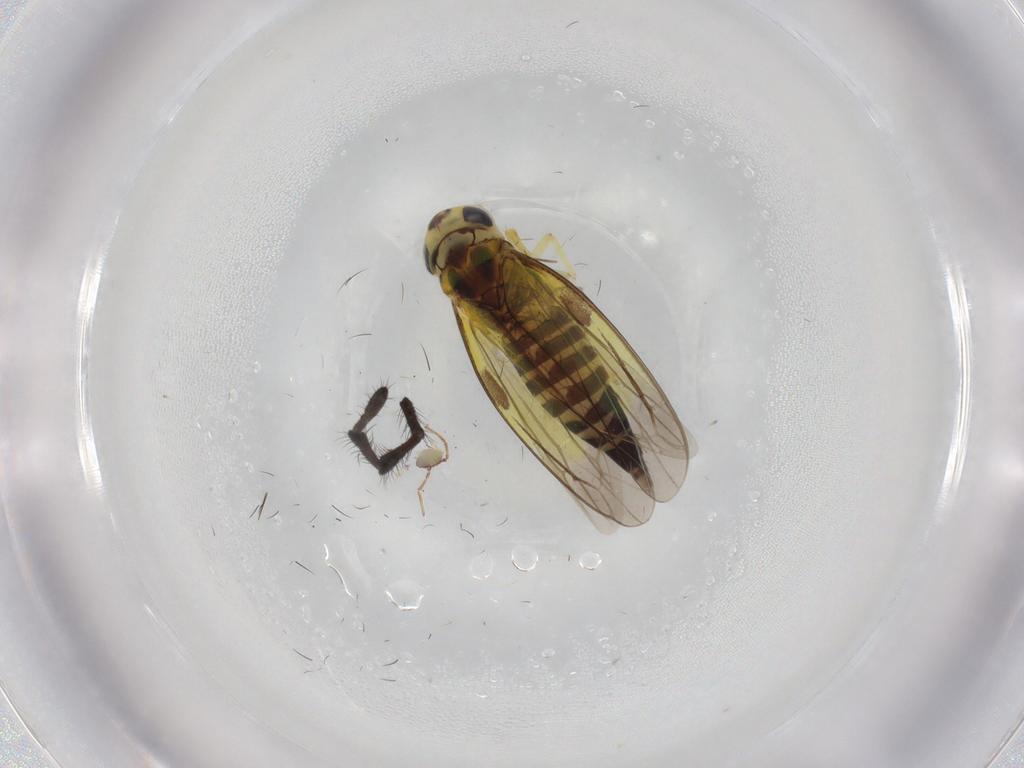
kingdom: Animalia
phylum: Arthropoda
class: Insecta
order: Hemiptera
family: Cicadellidae
